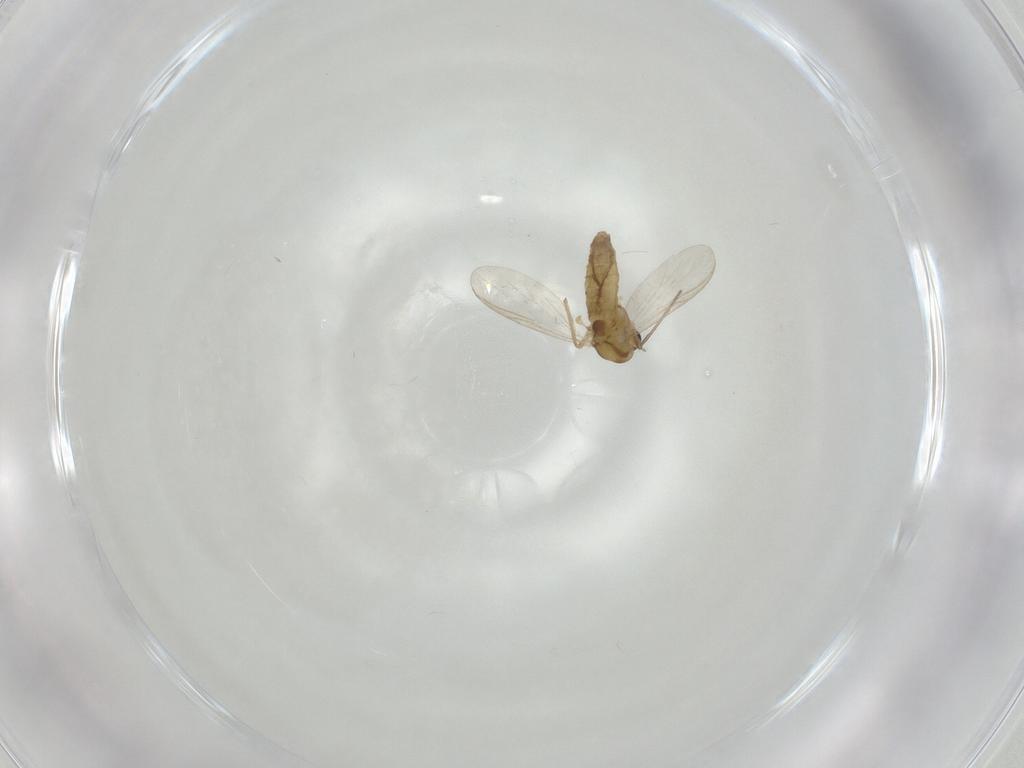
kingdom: Animalia
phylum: Arthropoda
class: Insecta
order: Diptera
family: Chironomidae
